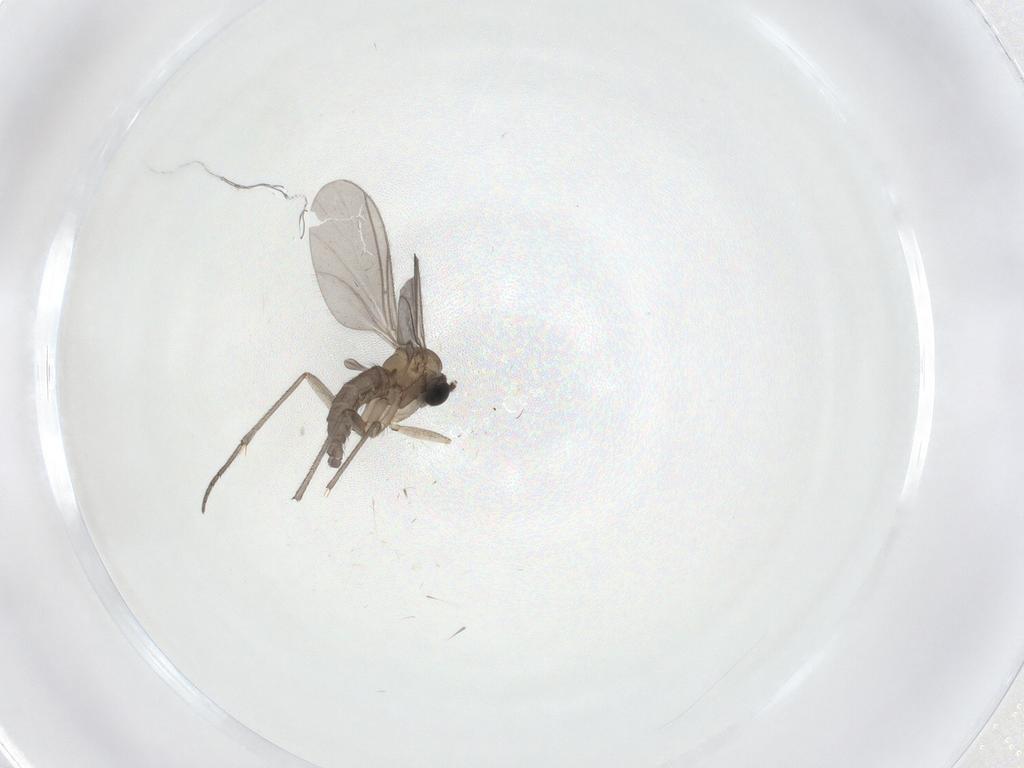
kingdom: Animalia
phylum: Arthropoda
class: Insecta
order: Diptera
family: Sciaridae
